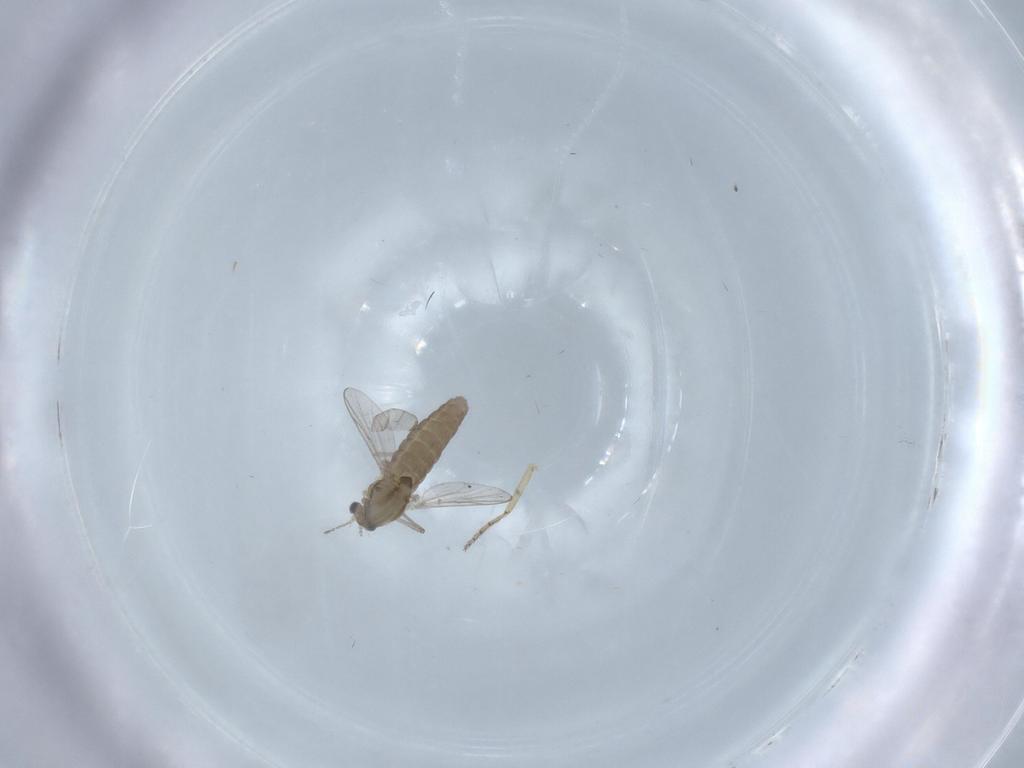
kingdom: Animalia
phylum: Arthropoda
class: Insecta
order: Diptera
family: Chironomidae
